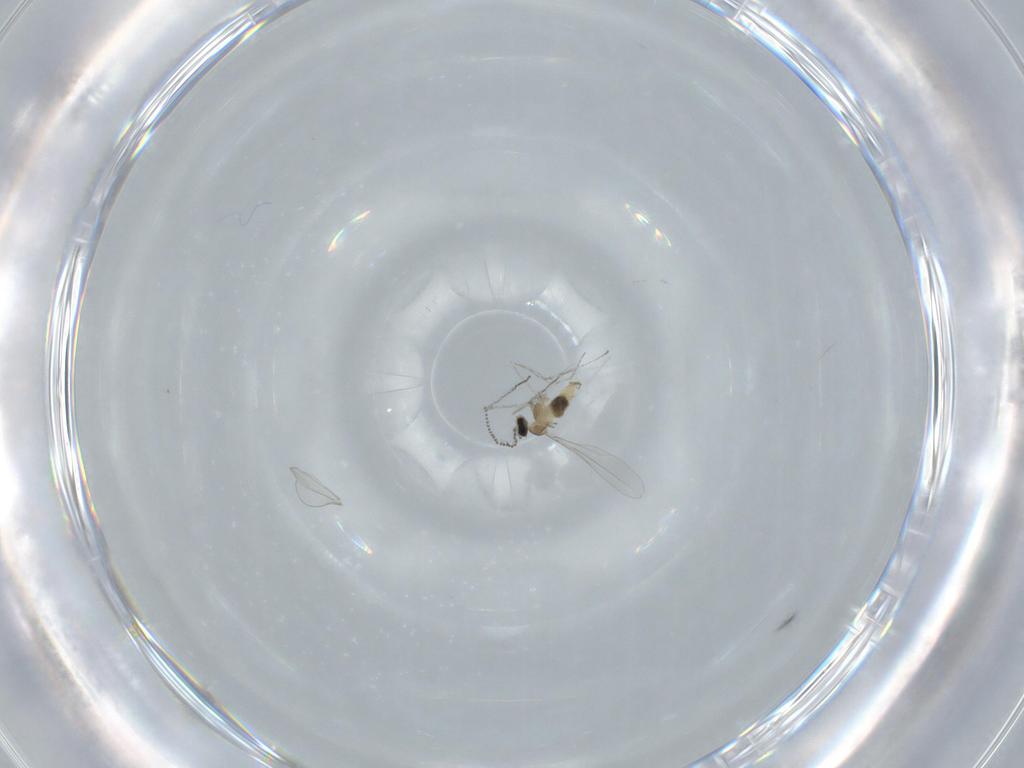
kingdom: Animalia
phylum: Arthropoda
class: Insecta
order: Diptera
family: Cecidomyiidae
